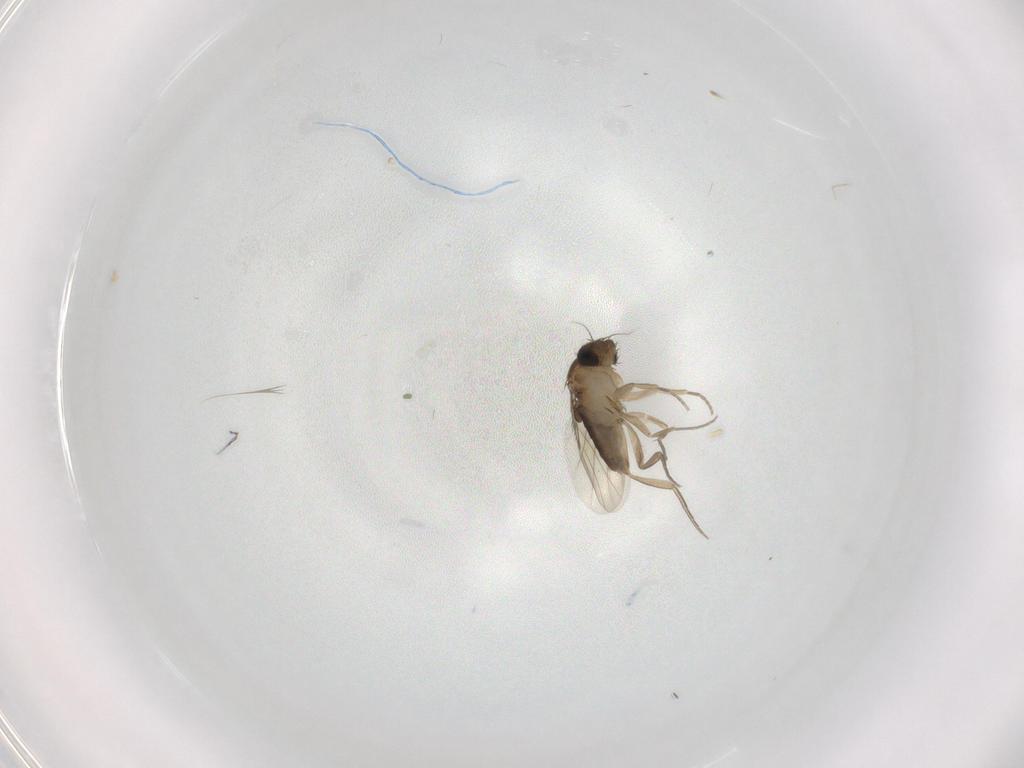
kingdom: Animalia
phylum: Arthropoda
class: Insecta
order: Diptera
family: Phoridae
